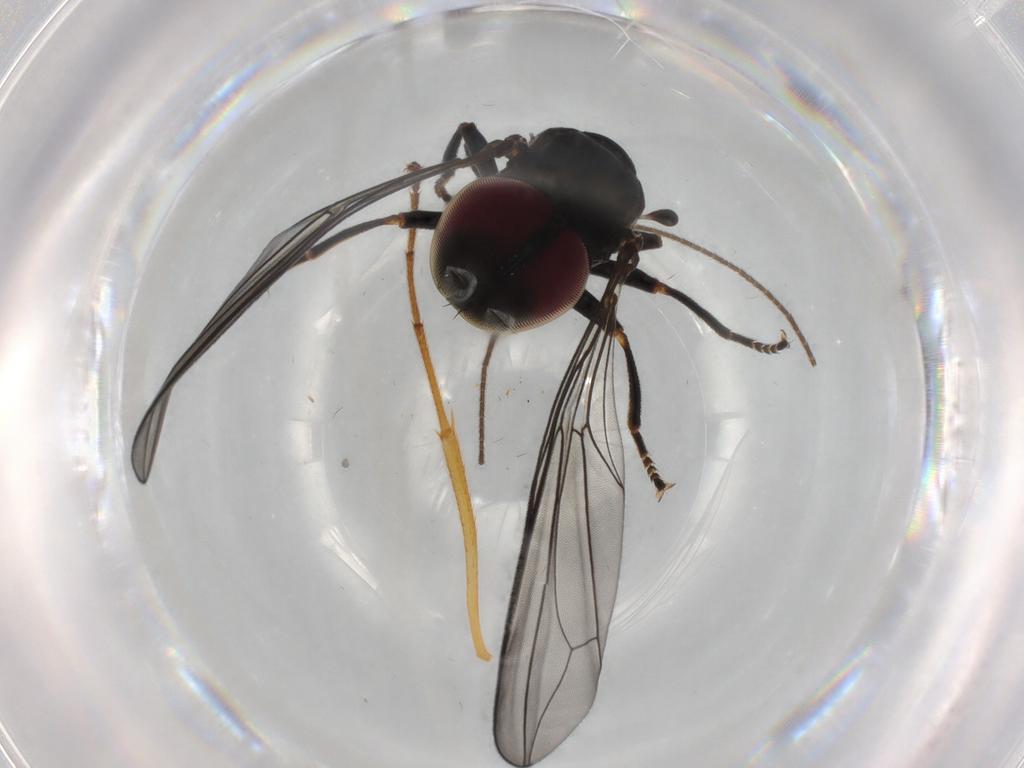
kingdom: Animalia
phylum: Arthropoda
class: Insecta
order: Diptera
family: Pipunculidae
